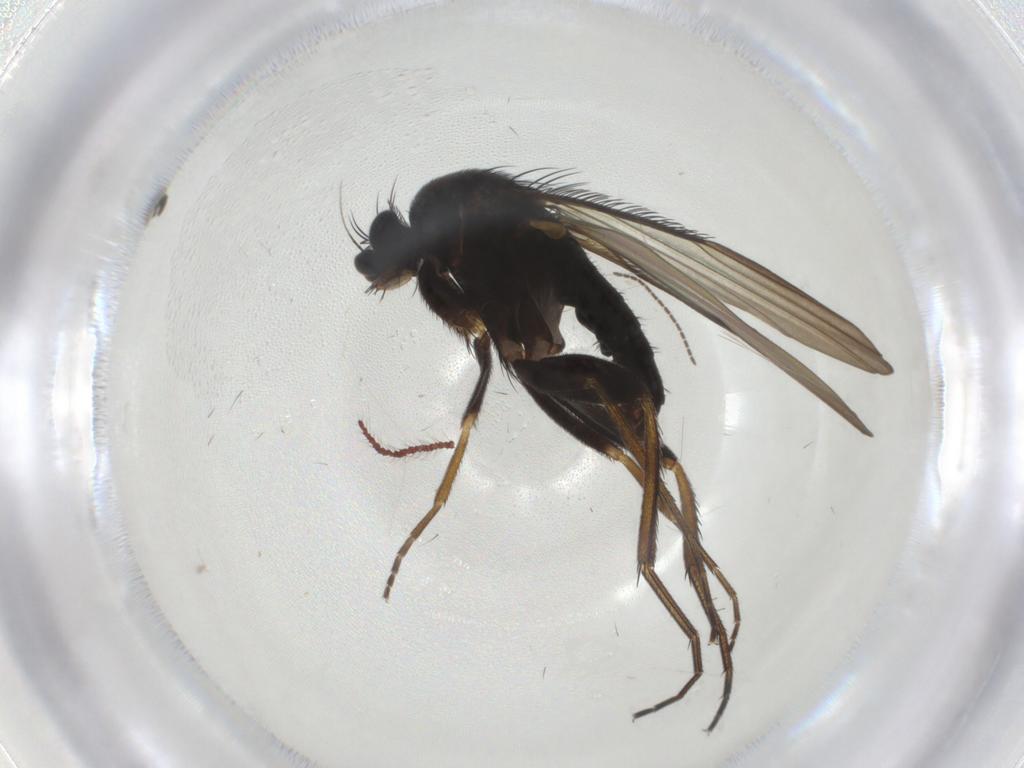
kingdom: Animalia
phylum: Arthropoda
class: Insecta
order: Diptera
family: Phoridae
